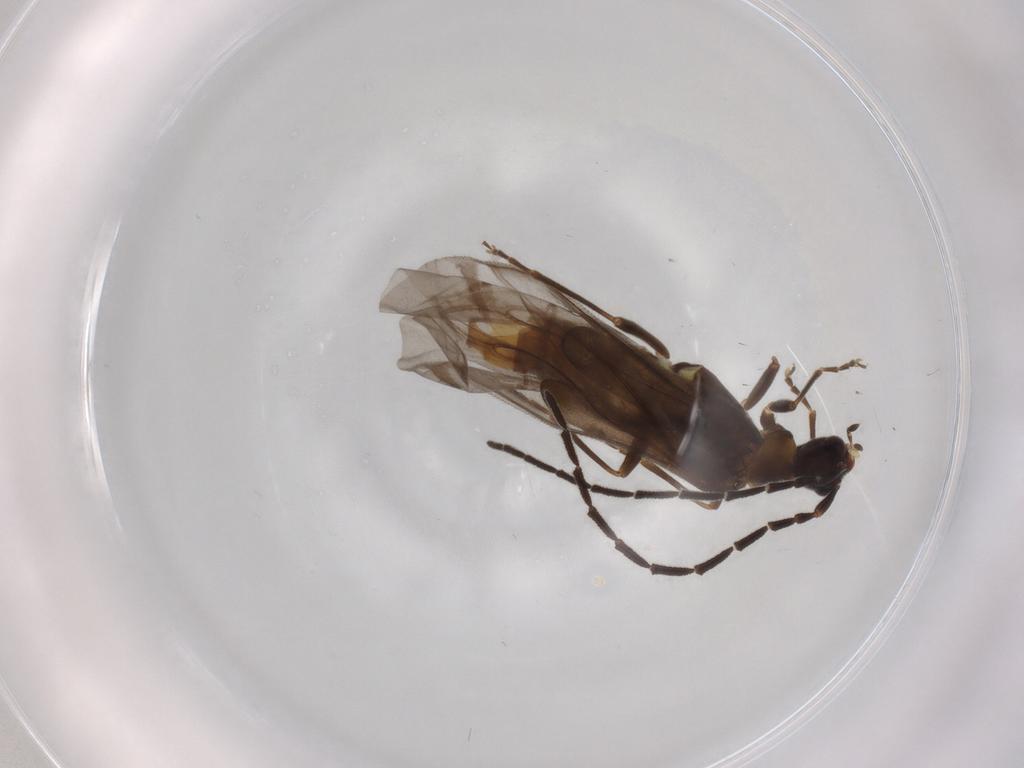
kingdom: Animalia
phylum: Arthropoda
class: Insecta
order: Coleoptera
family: Cantharidae
